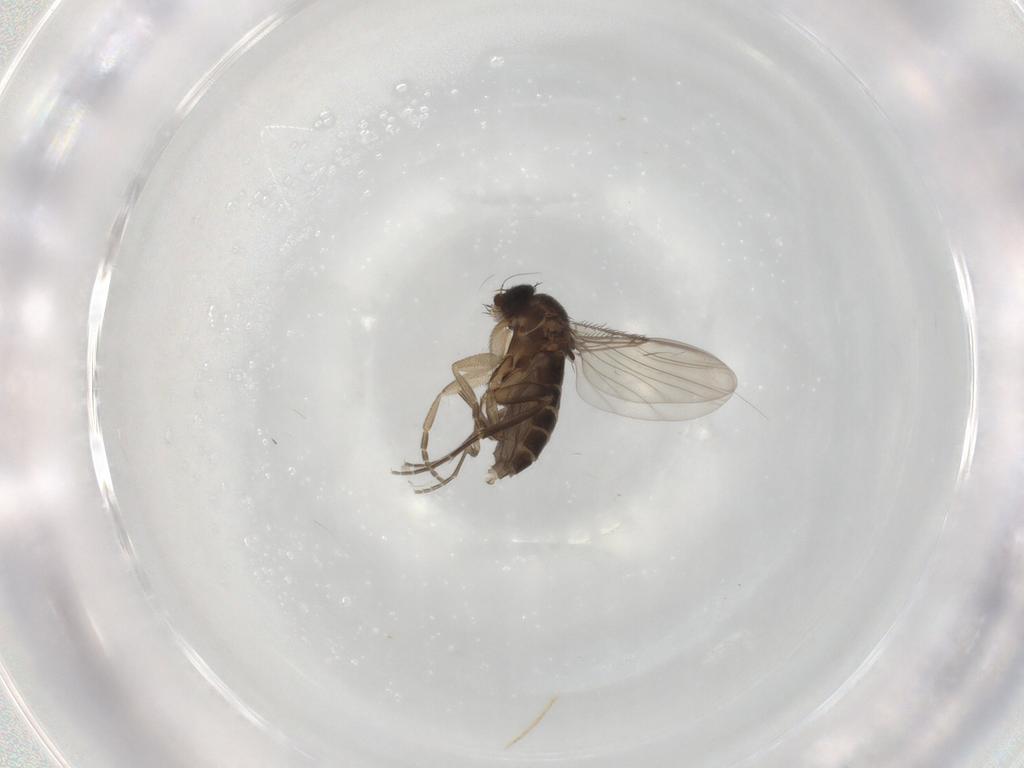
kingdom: Animalia
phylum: Arthropoda
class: Insecta
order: Diptera
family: Phoridae
